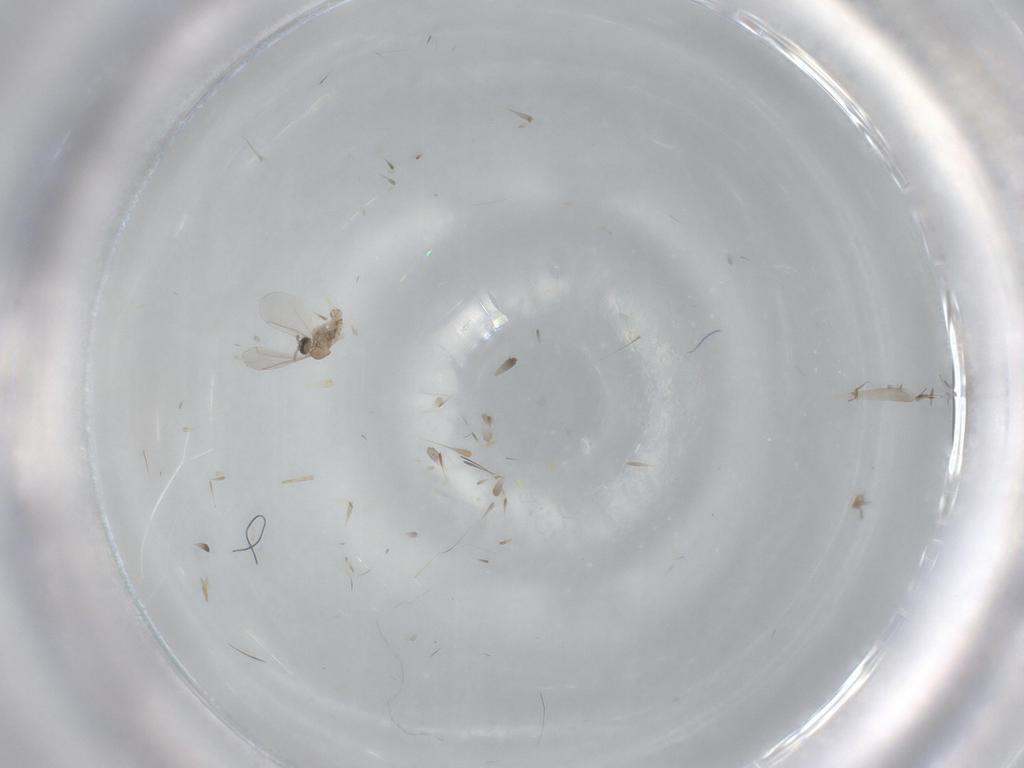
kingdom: Animalia
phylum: Arthropoda
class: Insecta
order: Diptera
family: Cecidomyiidae
